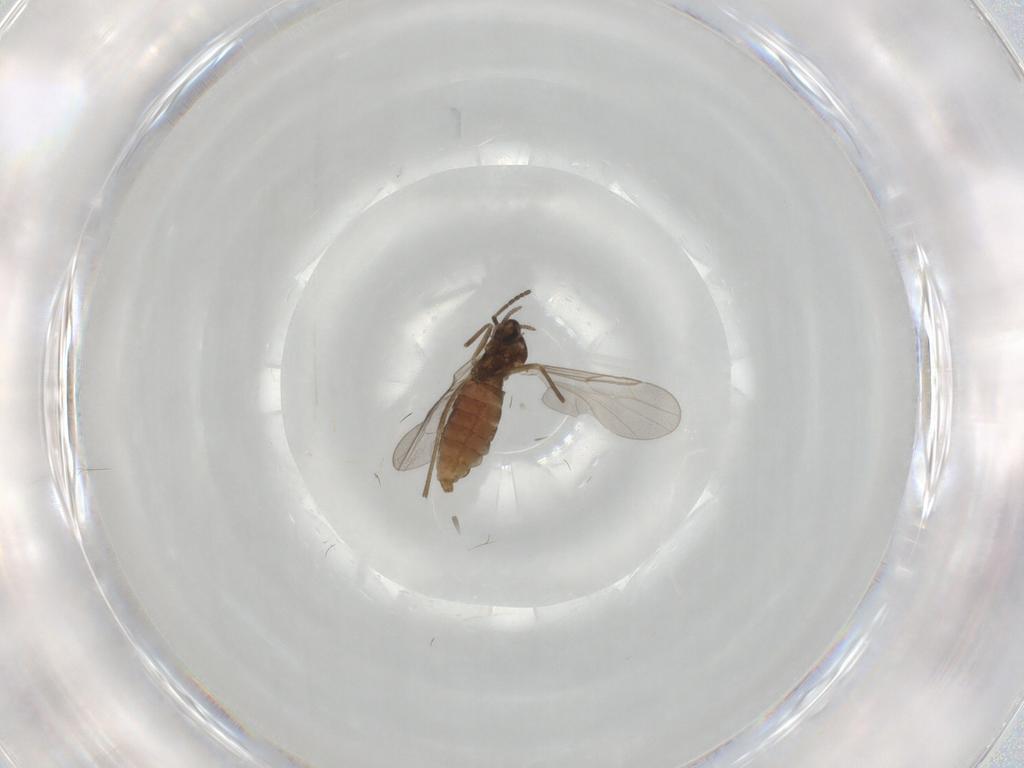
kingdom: Animalia
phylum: Arthropoda
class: Insecta
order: Diptera
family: Cecidomyiidae
